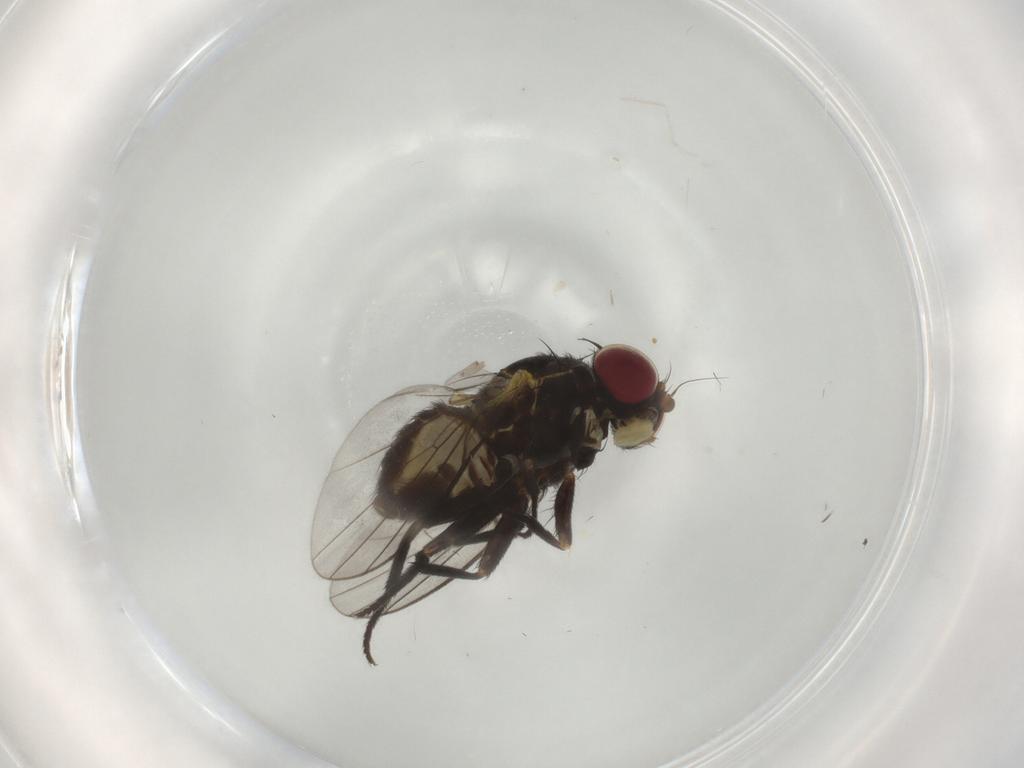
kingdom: Animalia
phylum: Arthropoda
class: Insecta
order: Diptera
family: Agromyzidae
